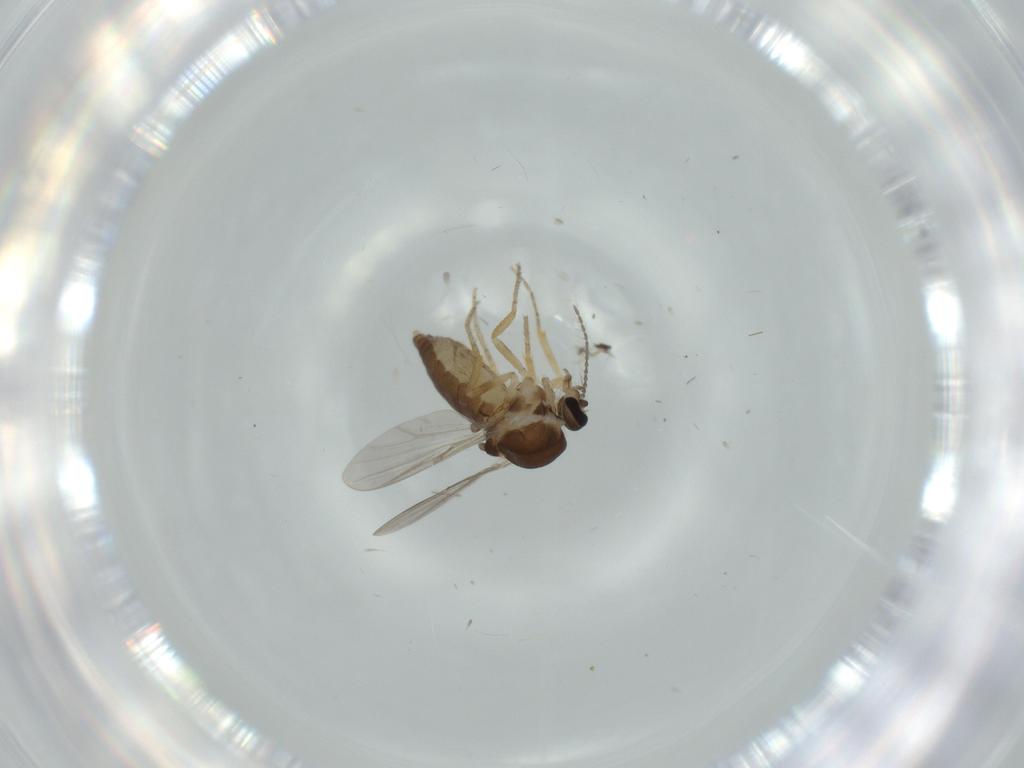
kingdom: Animalia
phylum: Arthropoda
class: Insecta
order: Diptera
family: Ceratopogonidae
